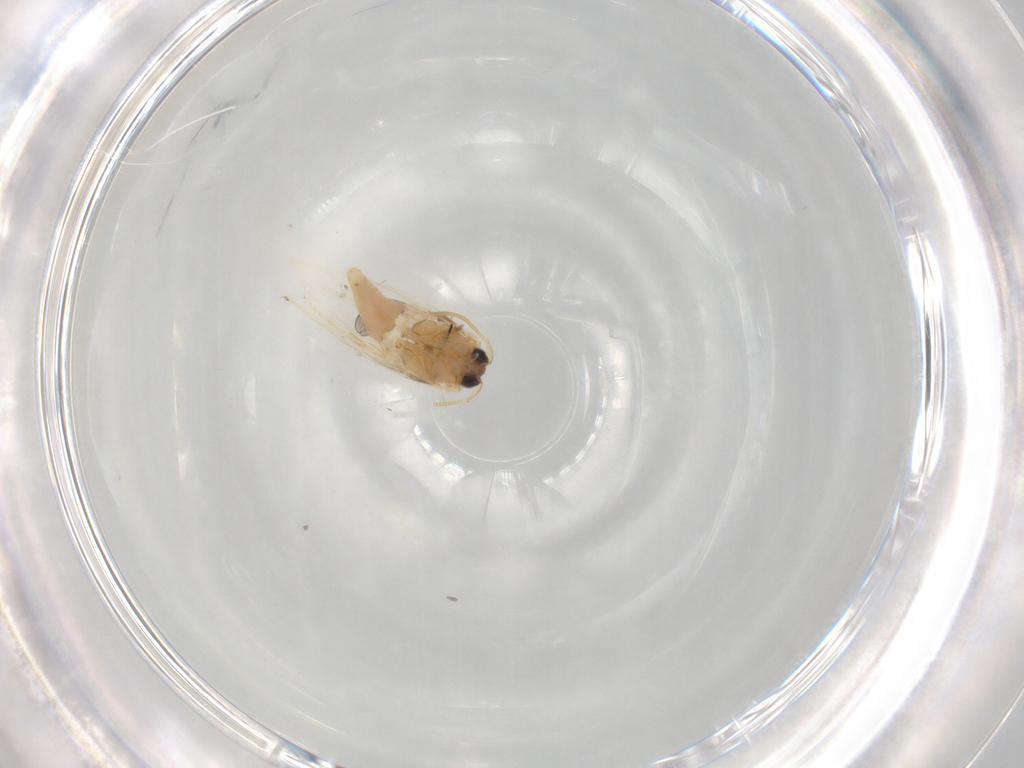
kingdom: Animalia
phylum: Arthropoda
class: Insecta
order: Lepidoptera
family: Nepticulidae
